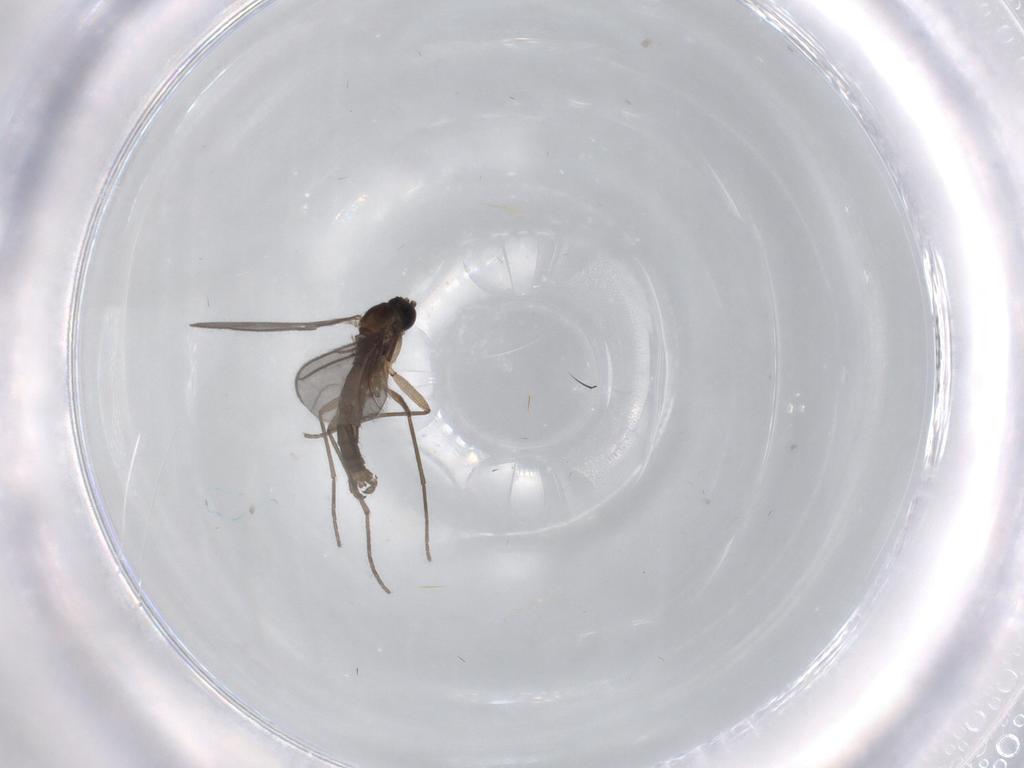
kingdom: Animalia
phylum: Arthropoda
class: Insecta
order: Diptera
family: Sciaridae
